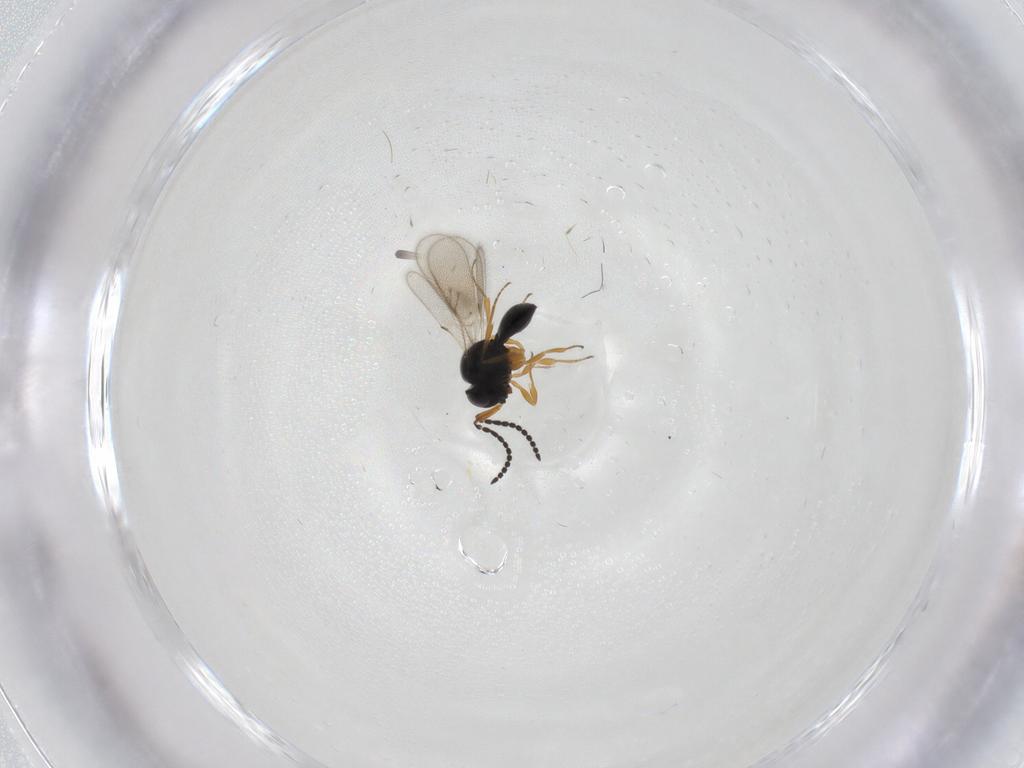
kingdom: Animalia
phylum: Arthropoda
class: Insecta
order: Hymenoptera
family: Scelionidae
